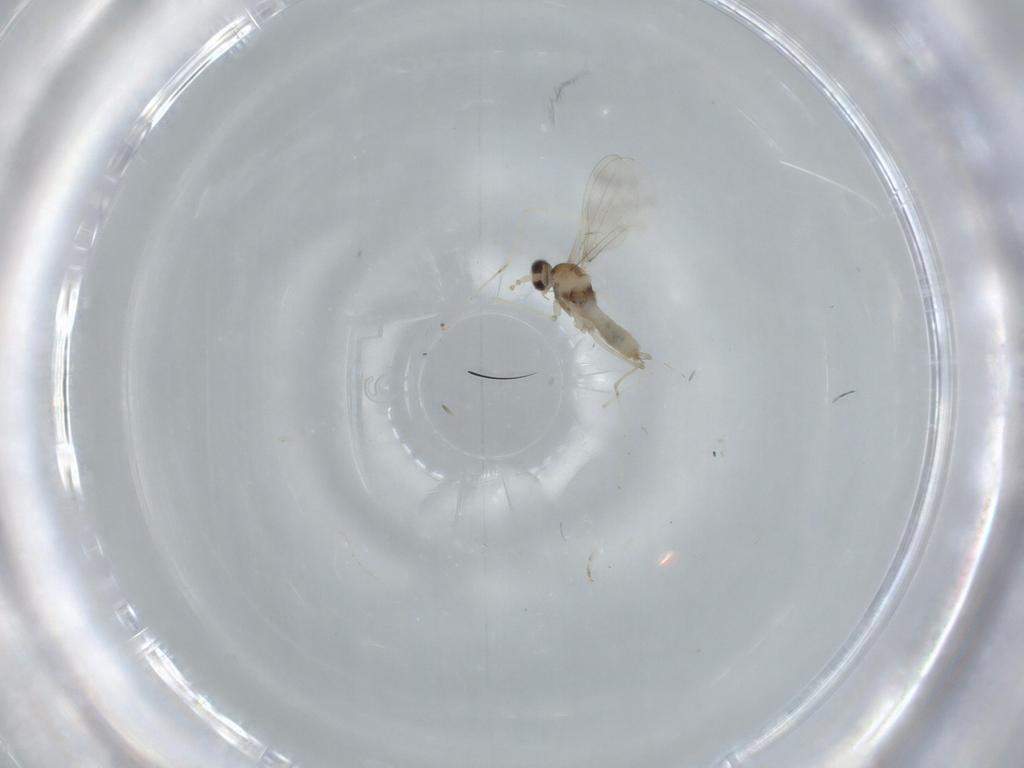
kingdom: Animalia
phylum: Arthropoda
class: Insecta
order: Diptera
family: Cecidomyiidae
